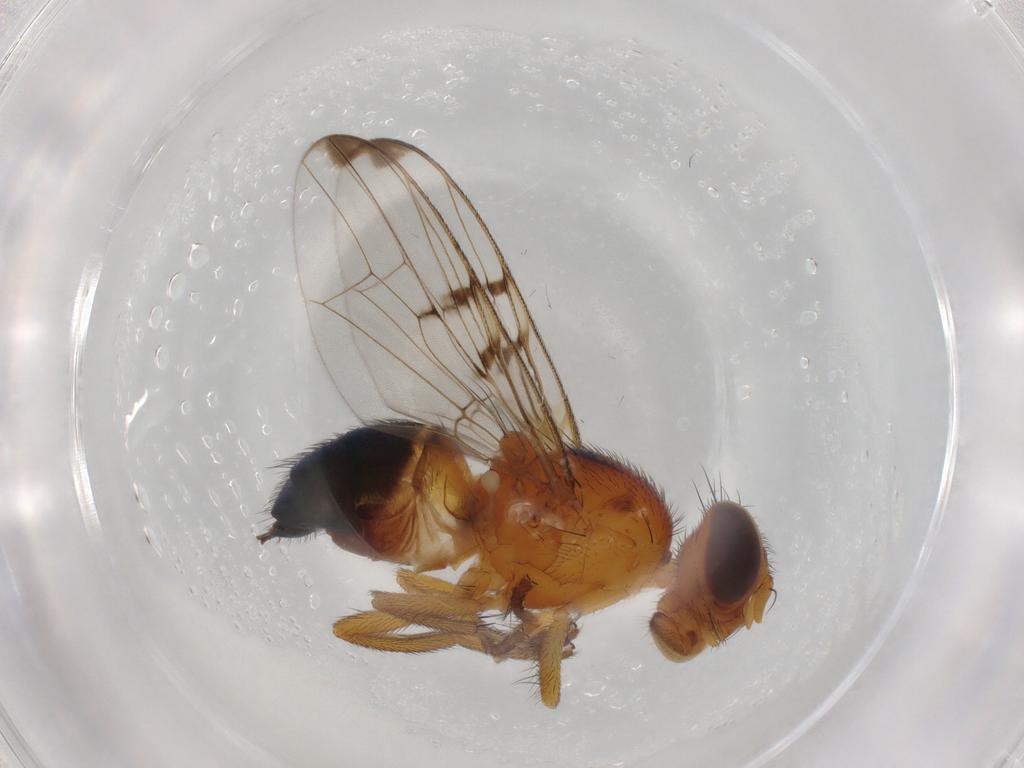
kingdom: Animalia
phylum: Arthropoda
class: Insecta
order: Diptera
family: Platystomatidae
